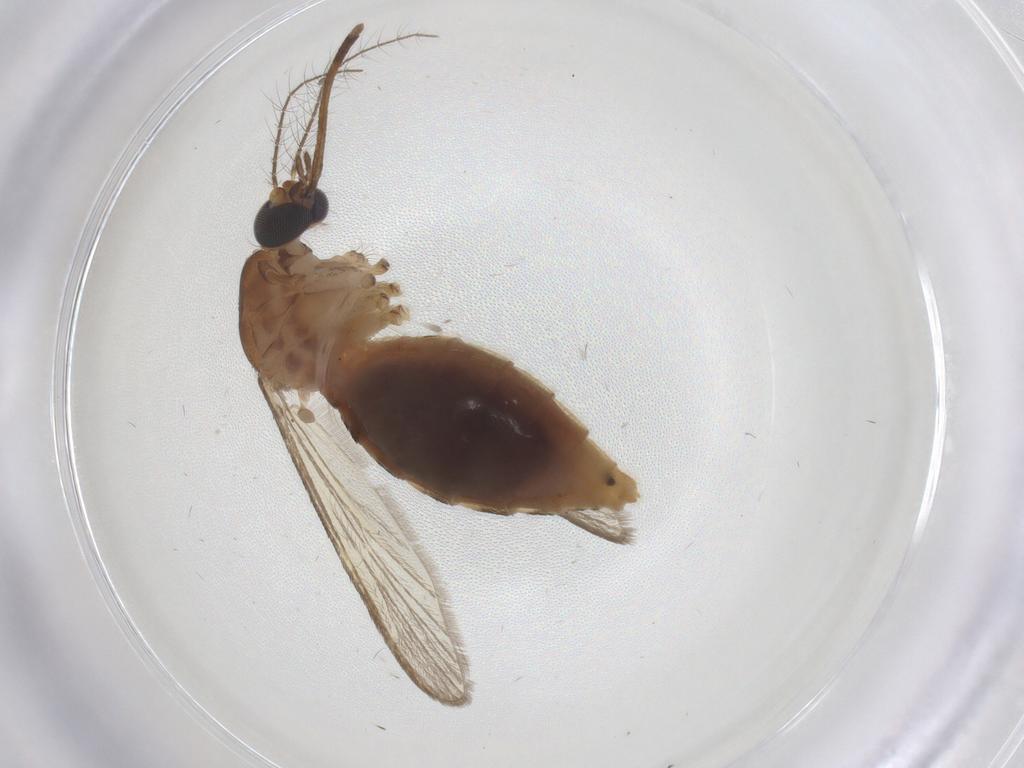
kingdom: Animalia
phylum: Arthropoda
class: Insecta
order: Diptera
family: Culicidae
